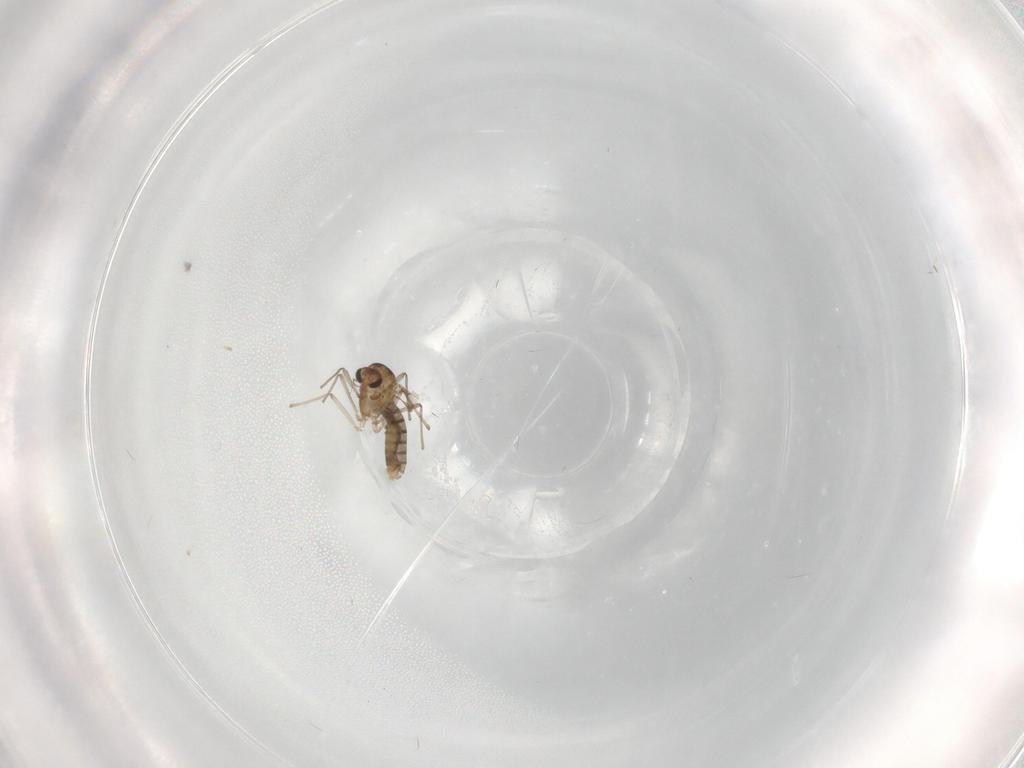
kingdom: Animalia
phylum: Arthropoda
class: Insecta
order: Diptera
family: Chironomidae
